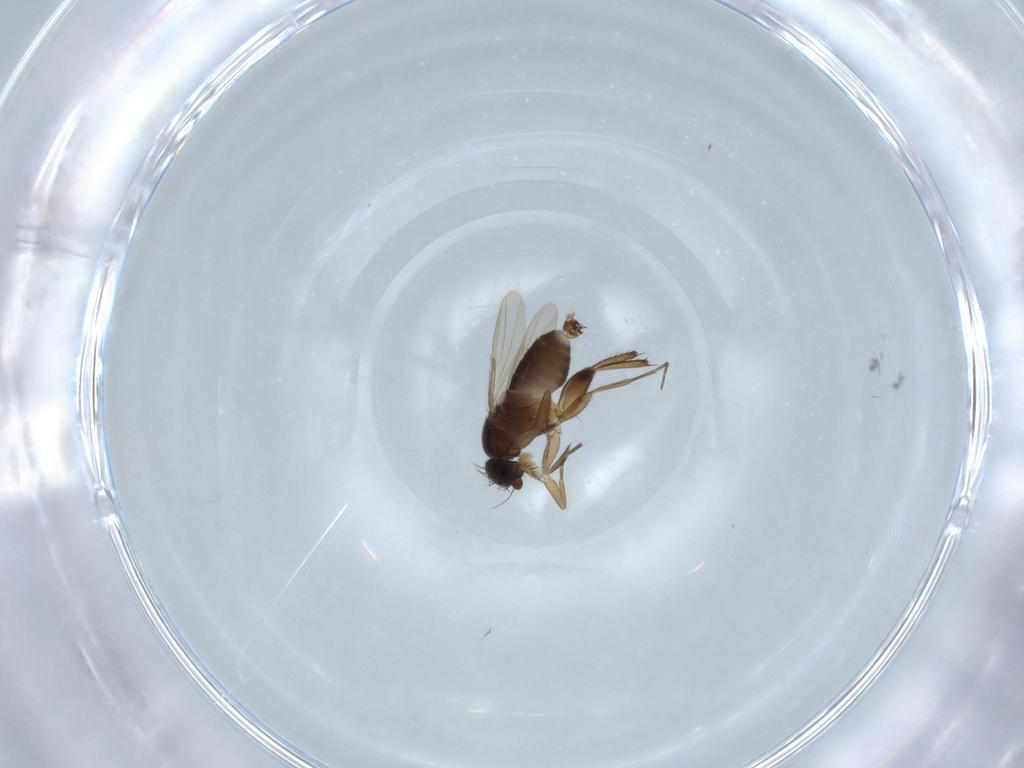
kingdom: Animalia
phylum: Arthropoda
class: Insecta
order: Diptera
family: Phoridae
